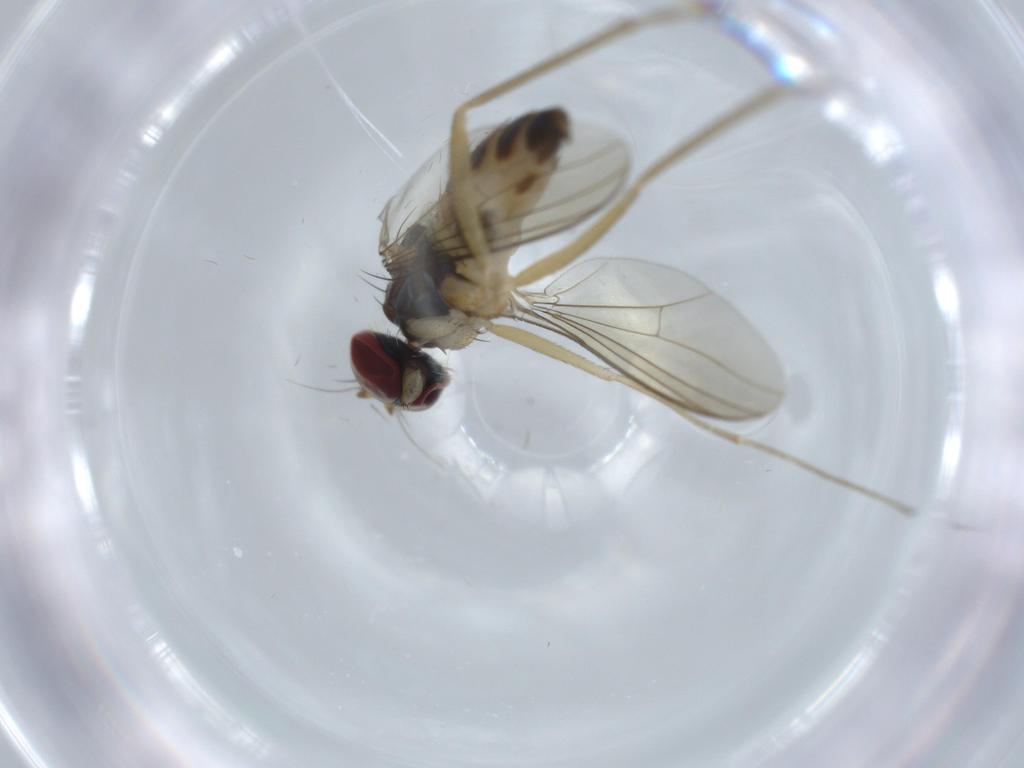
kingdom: Animalia
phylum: Arthropoda
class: Insecta
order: Diptera
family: Dolichopodidae
